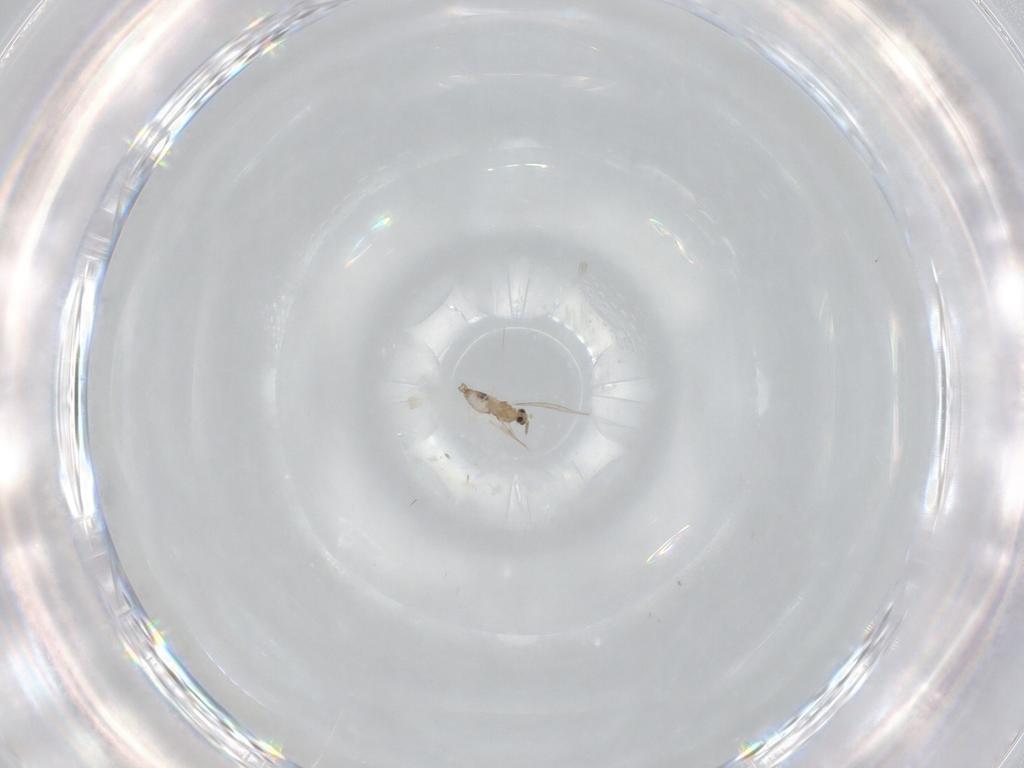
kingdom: Animalia
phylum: Arthropoda
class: Insecta
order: Diptera
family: Cecidomyiidae
